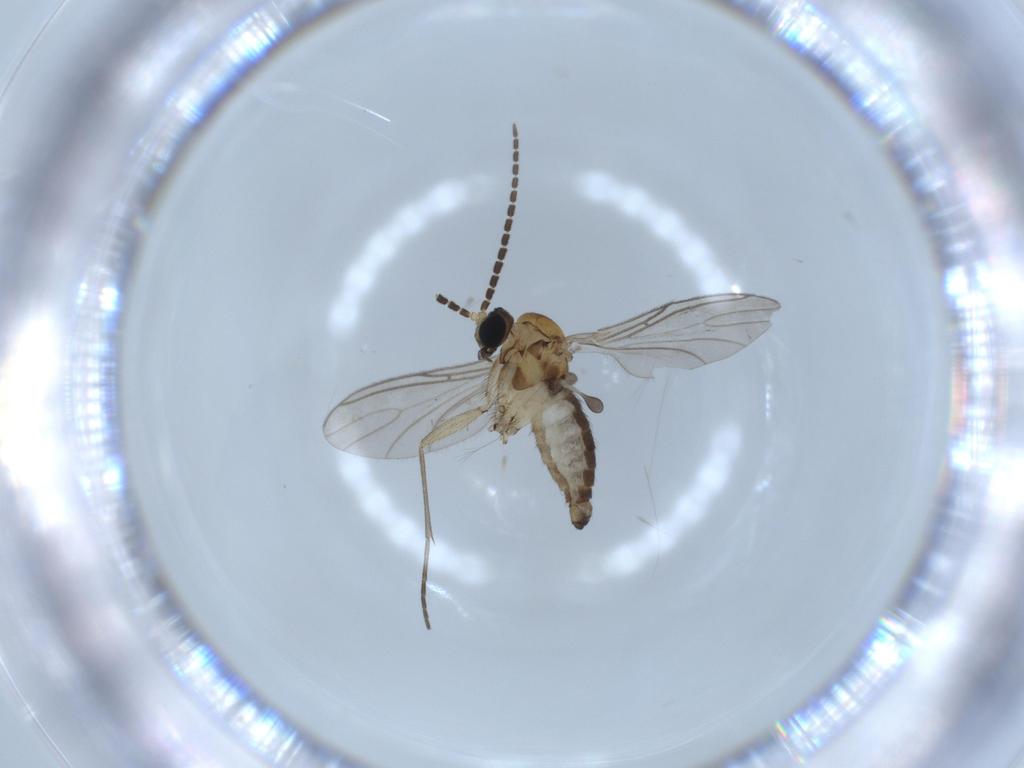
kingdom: Animalia
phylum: Arthropoda
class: Insecta
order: Diptera
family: Sciaridae
